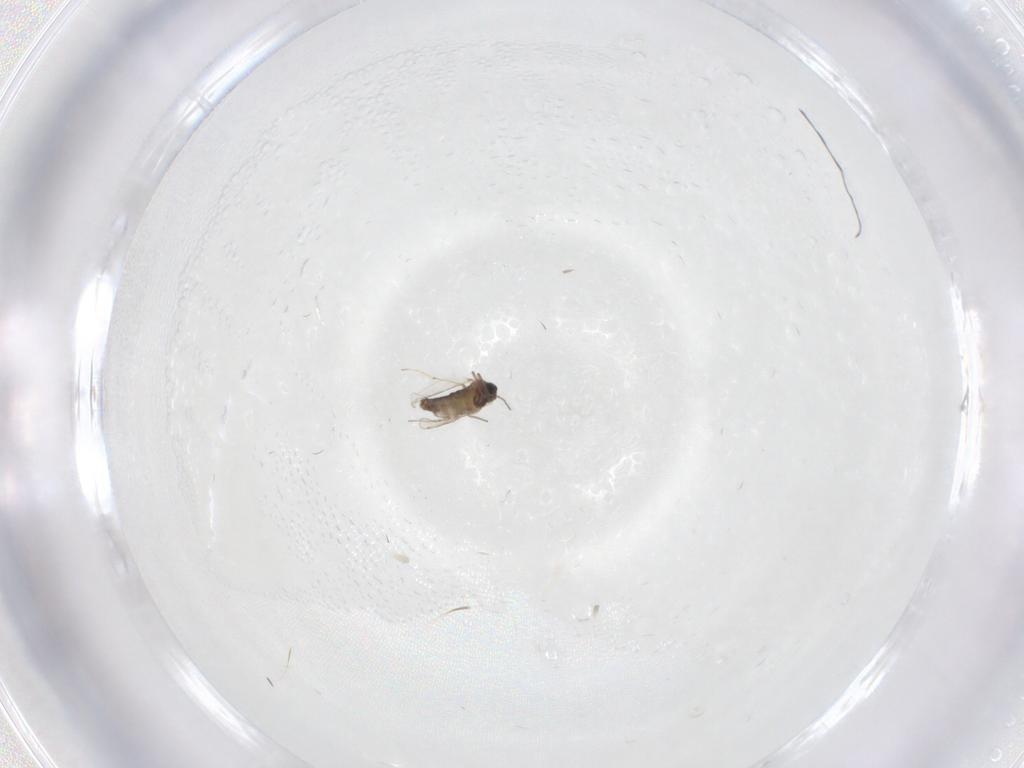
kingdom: Animalia
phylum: Arthropoda
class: Insecta
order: Diptera
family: Chironomidae
